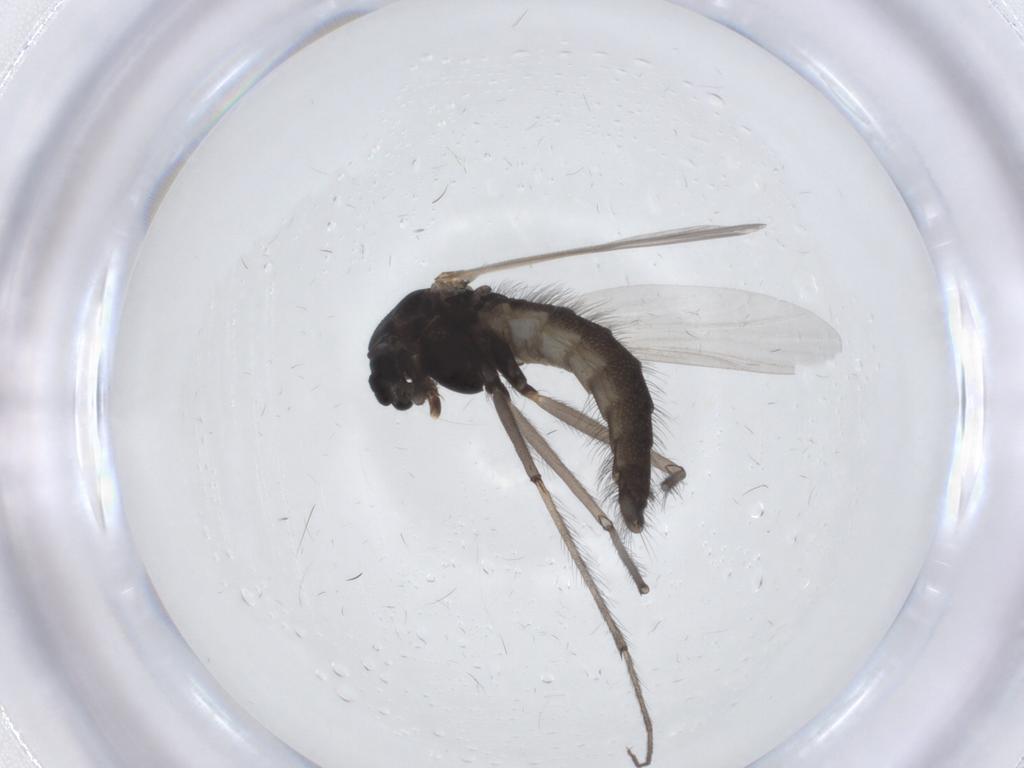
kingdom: Animalia
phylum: Arthropoda
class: Insecta
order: Diptera
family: Chironomidae
